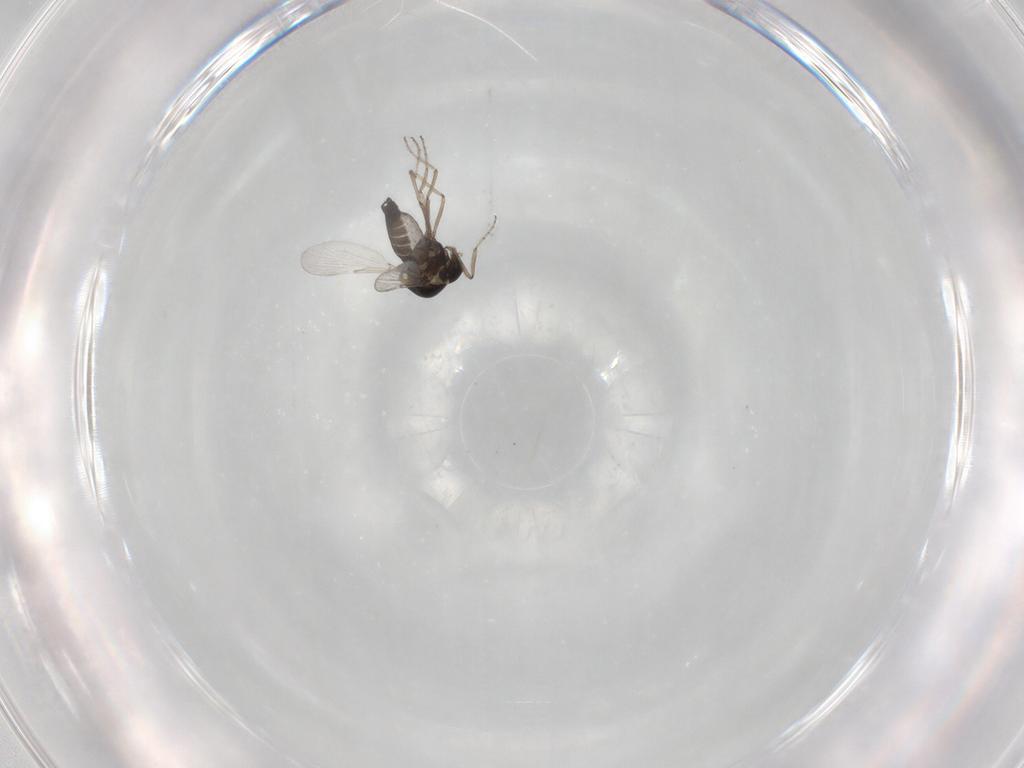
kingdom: Animalia
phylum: Arthropoda
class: Insecta
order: Diptera
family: Ceratopogonidae
